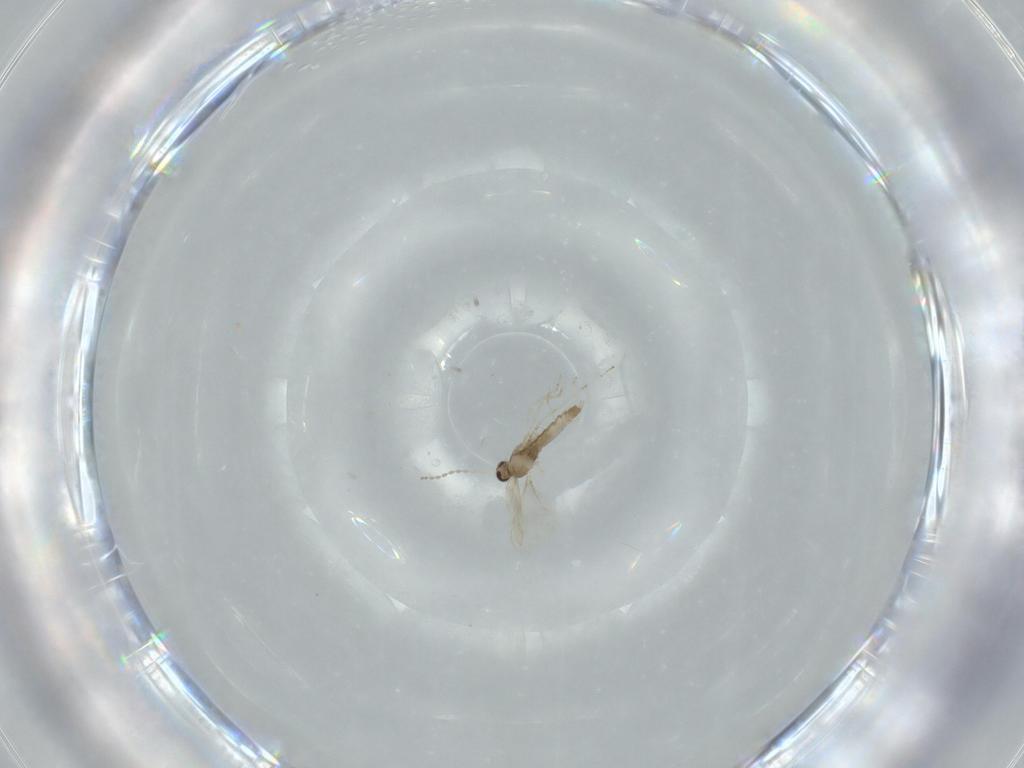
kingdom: Animalia
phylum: Arthropoda
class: Insecta
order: Diptera
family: Cecidomyiidae
